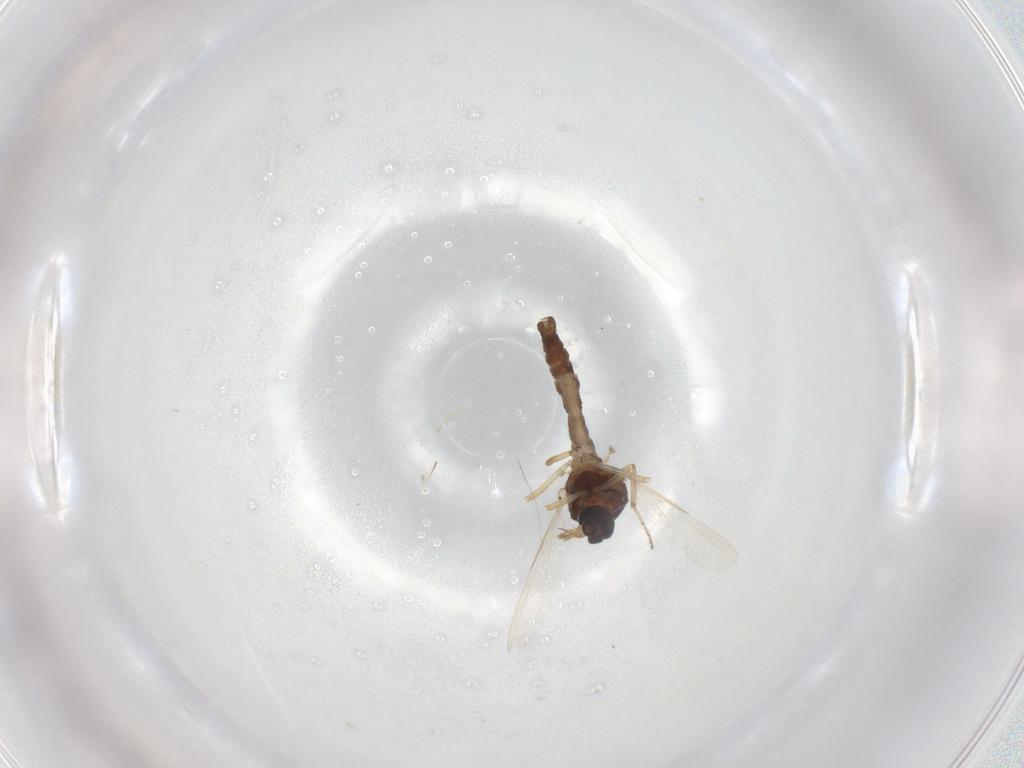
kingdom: Animalia
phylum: Arthropoda
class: Insecta
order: Diptera
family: Ceratopogonidae
